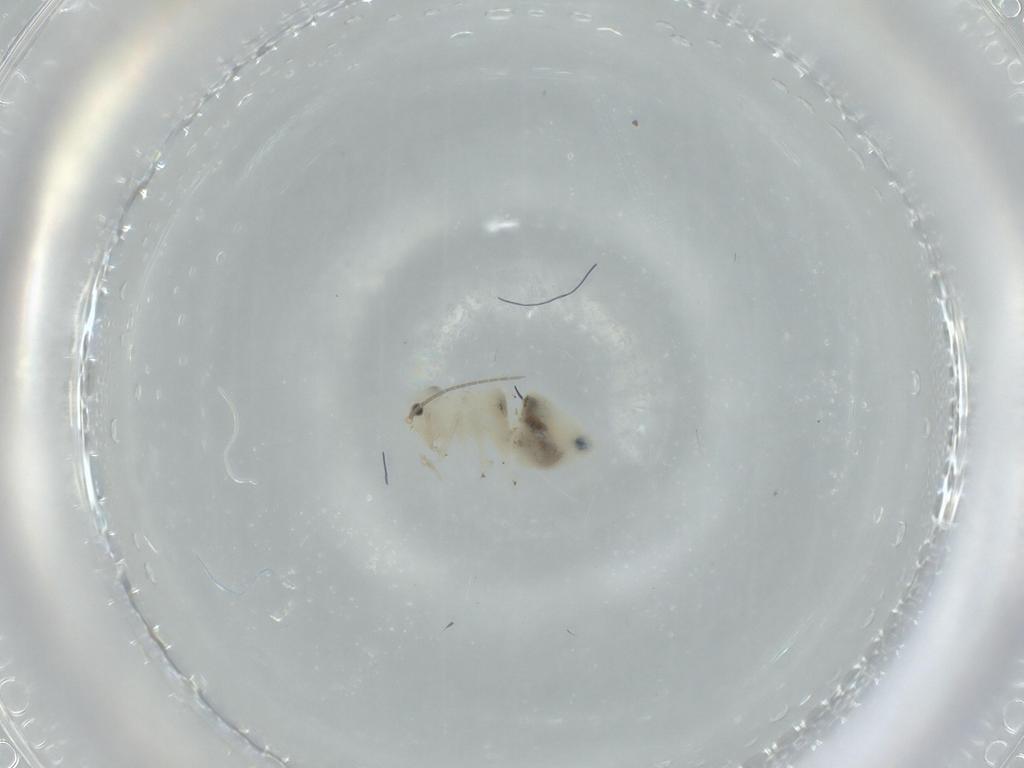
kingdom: Animalia
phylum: Arthropoda
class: Insecta
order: Psocodea
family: Caeciliusidae
